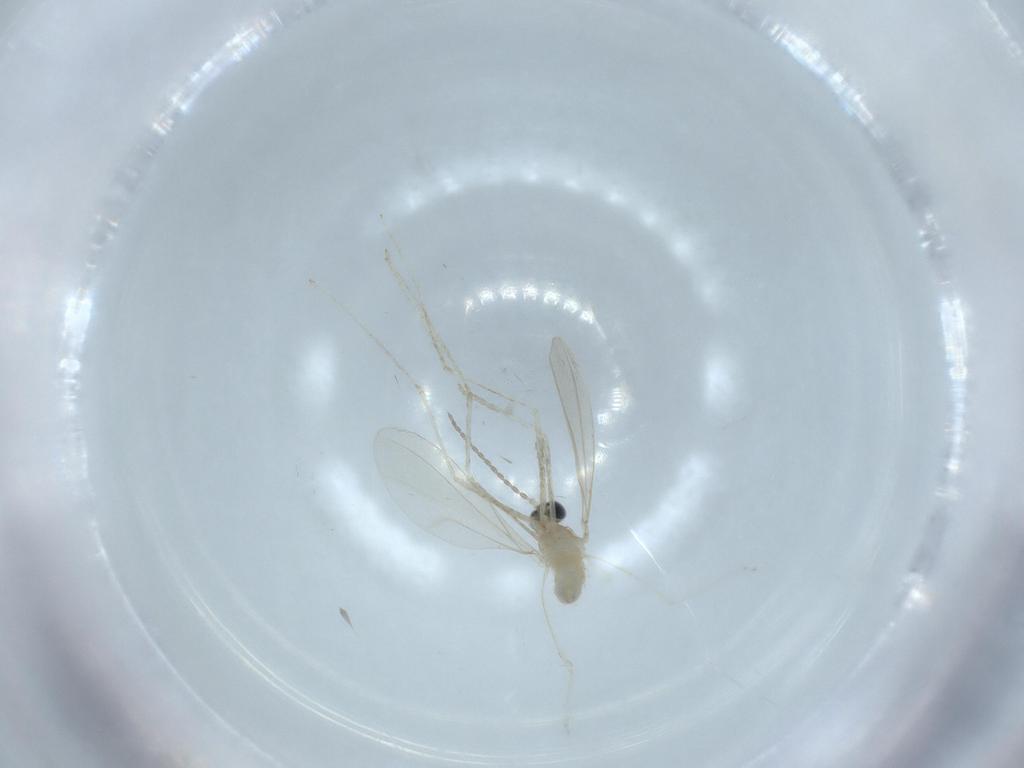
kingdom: Animalia
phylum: Arthropoda
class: Insecta
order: Diptera
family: Cecidomyiidae
